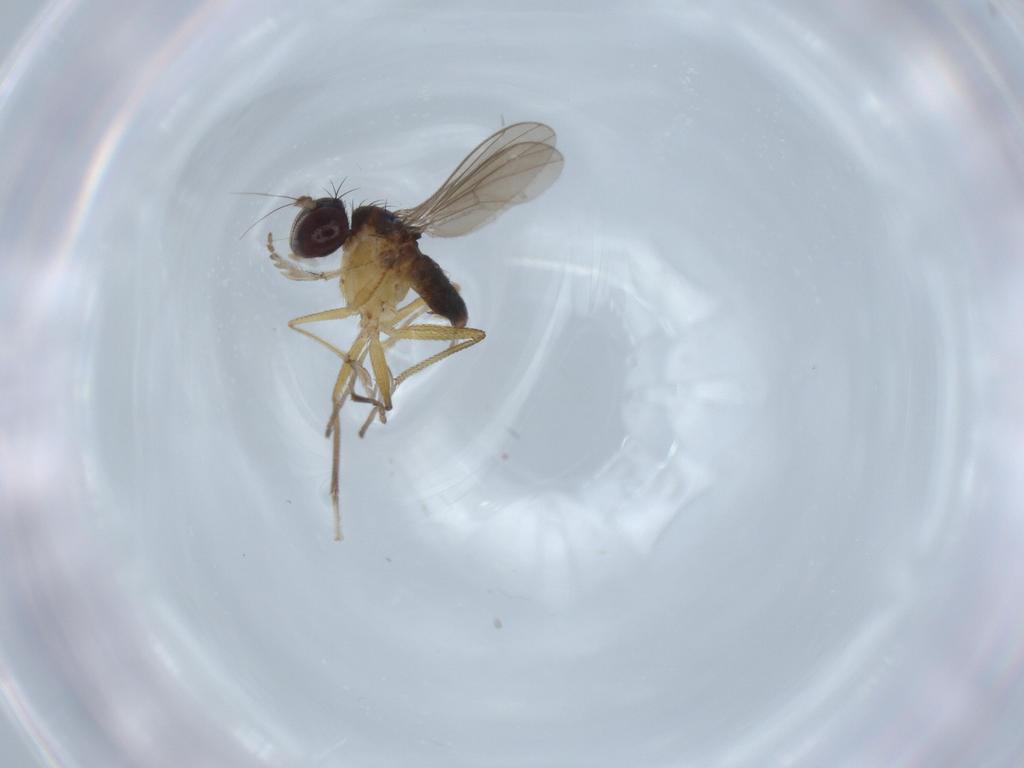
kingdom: Animalia
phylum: Arthropoda
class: Insecta
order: Diptera
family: Dolichopodidae
